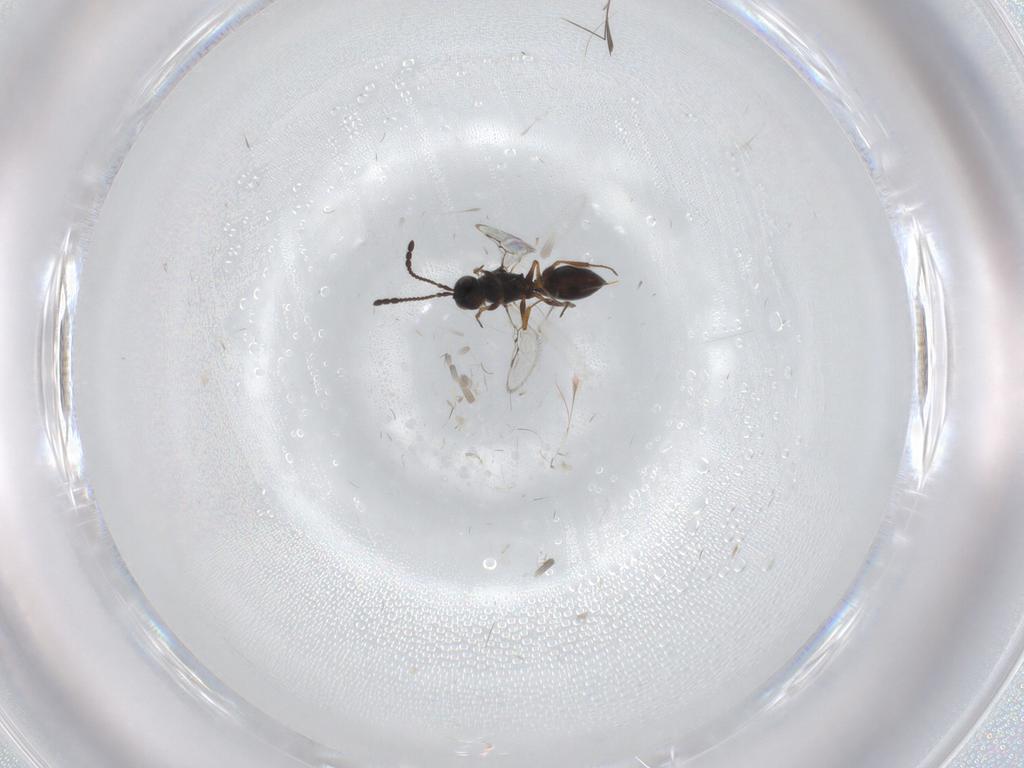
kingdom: Animalia
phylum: Arthropoda
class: Insecta
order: Hymenoptera
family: Figitidae
